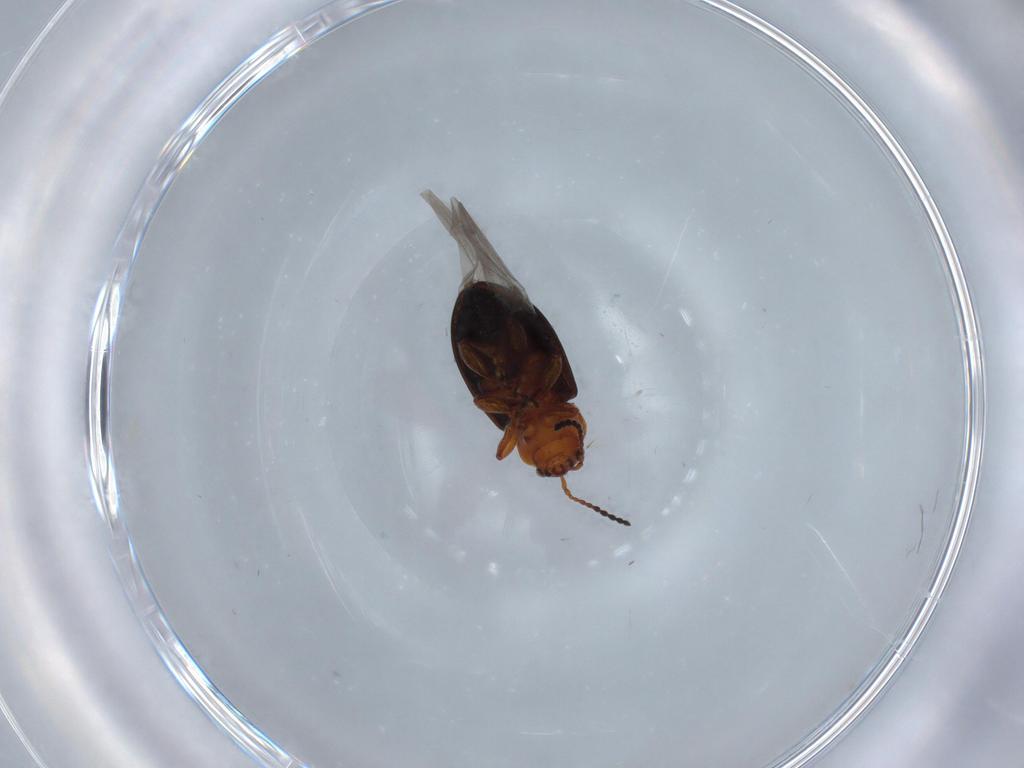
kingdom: Animalia
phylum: Arthropoda
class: Insecta
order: Coleoptera
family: Chrysomelidae
